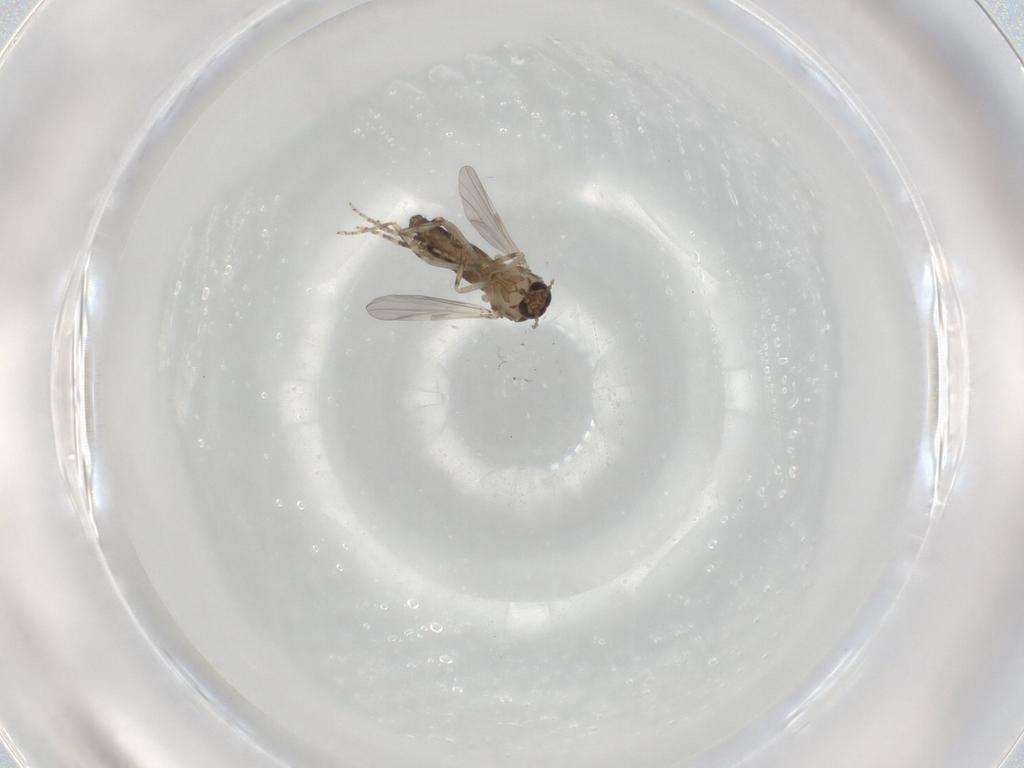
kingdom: Animalia
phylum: Arthropoda
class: Insecta
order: Diptera
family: Ceratopogonidae
